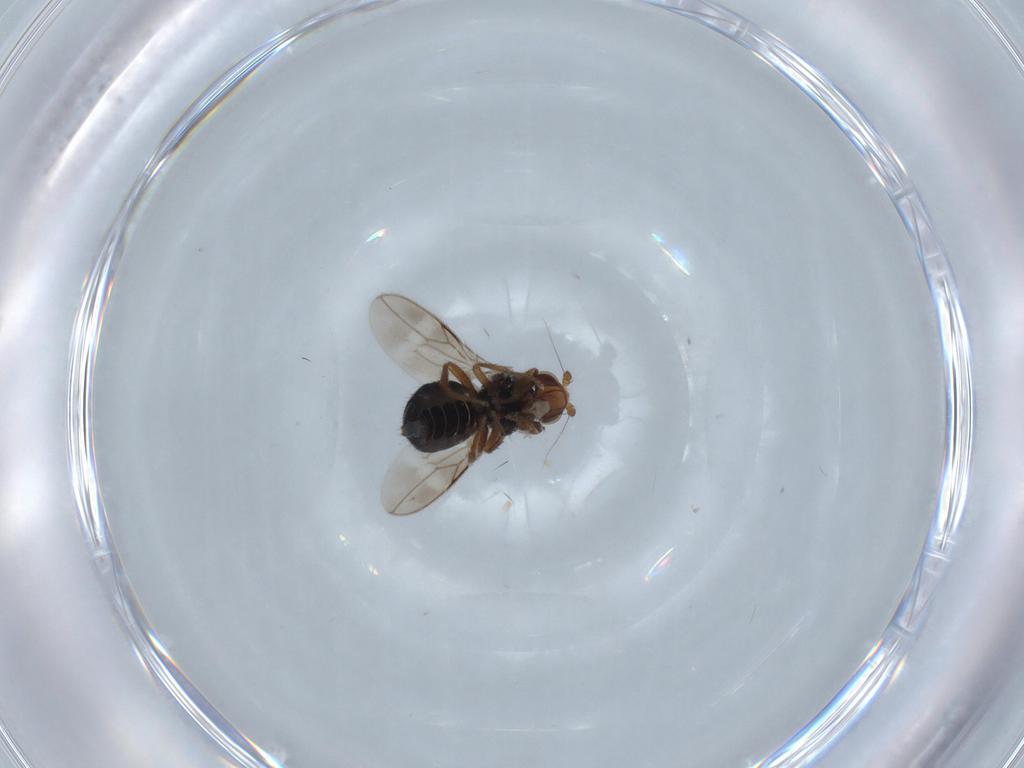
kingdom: Animalia
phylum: Arthropoda
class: Insecta
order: Diptera
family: Sphaeroceridae
